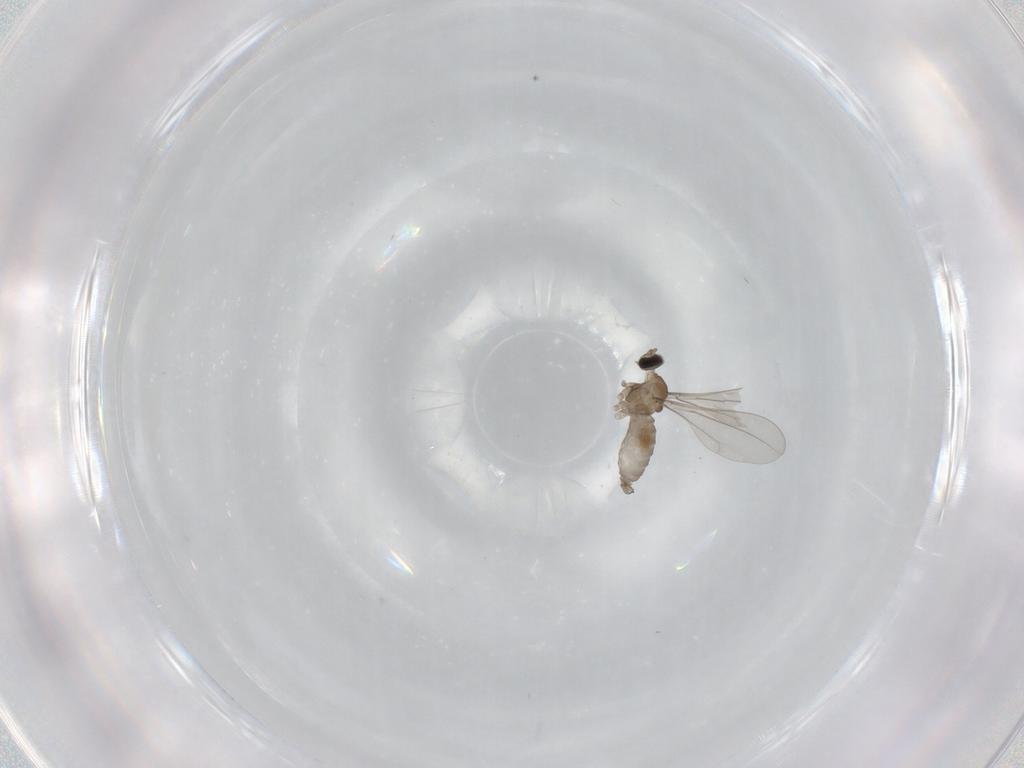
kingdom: Animalia
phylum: Arthropoda
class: Insecta
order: Diptera
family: Cecidomyiidae
